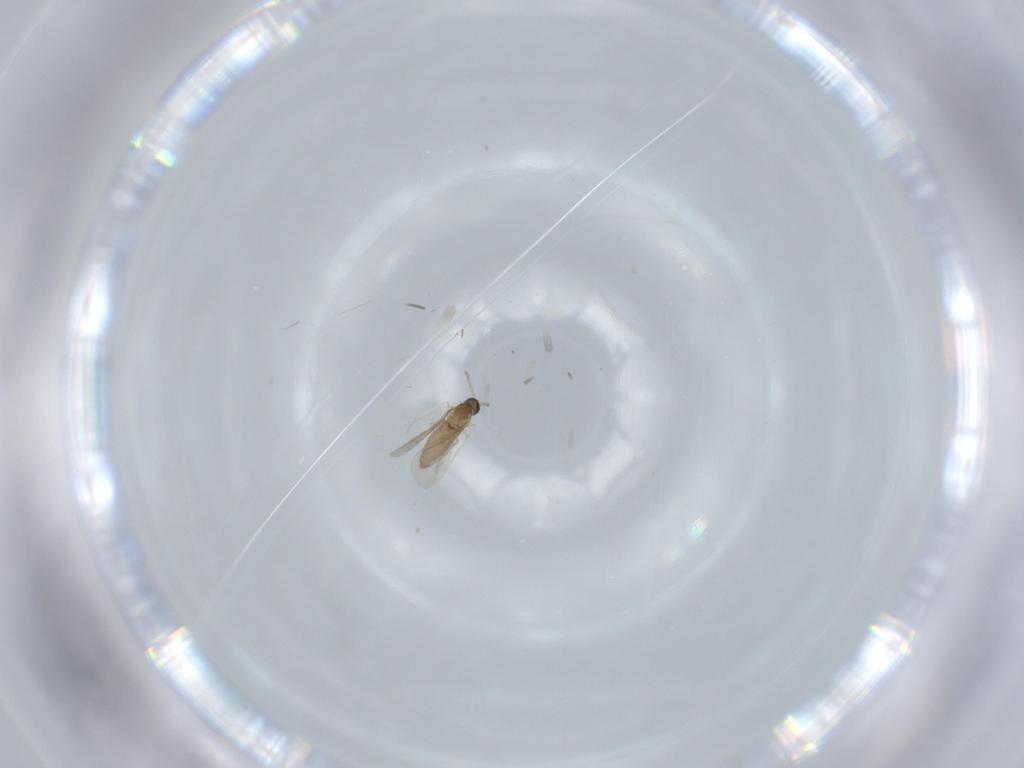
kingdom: Animalia
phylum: Arthropoda
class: Insecta
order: Diptera
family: Cecidomyiidae
